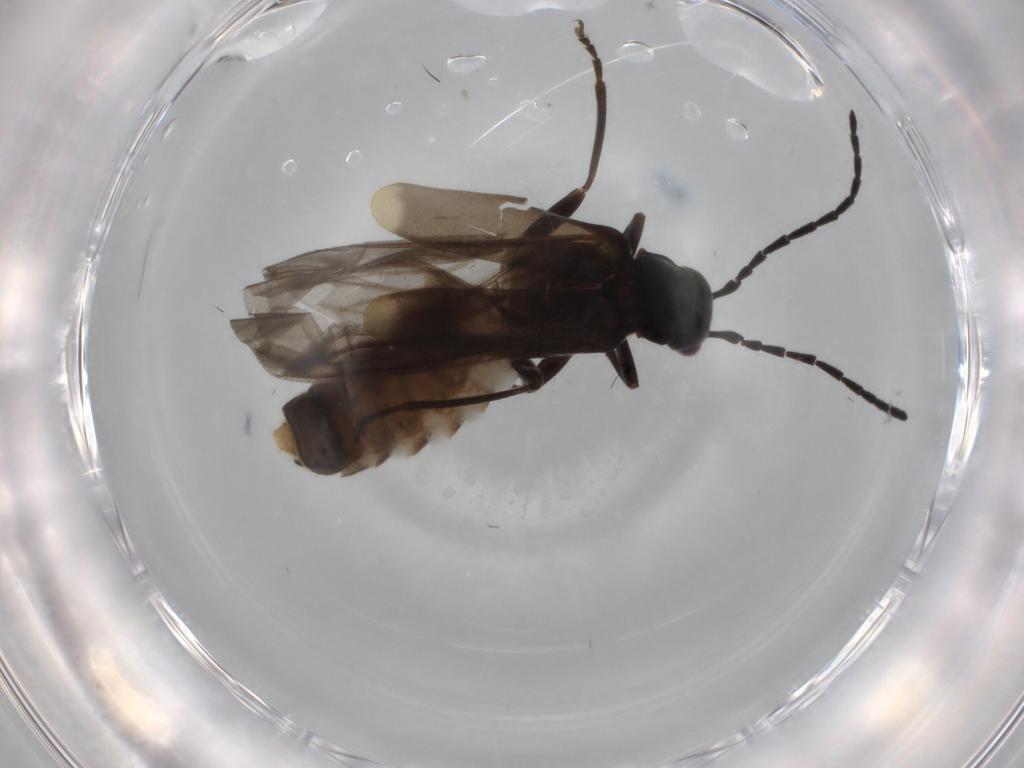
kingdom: Animalia
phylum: Arthropoda
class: Insecta
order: Coleoptera
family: Cantharidae
